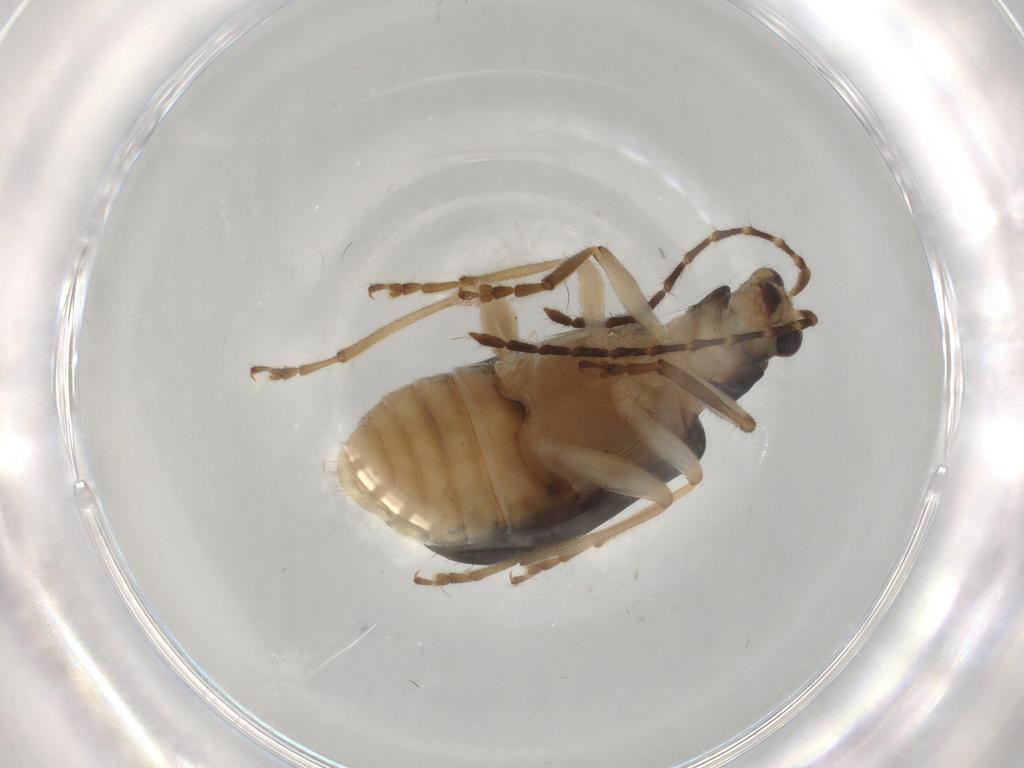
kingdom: Animalia
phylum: Arthropoda
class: Insecta
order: Coleoptera
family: Chrysomelidae
